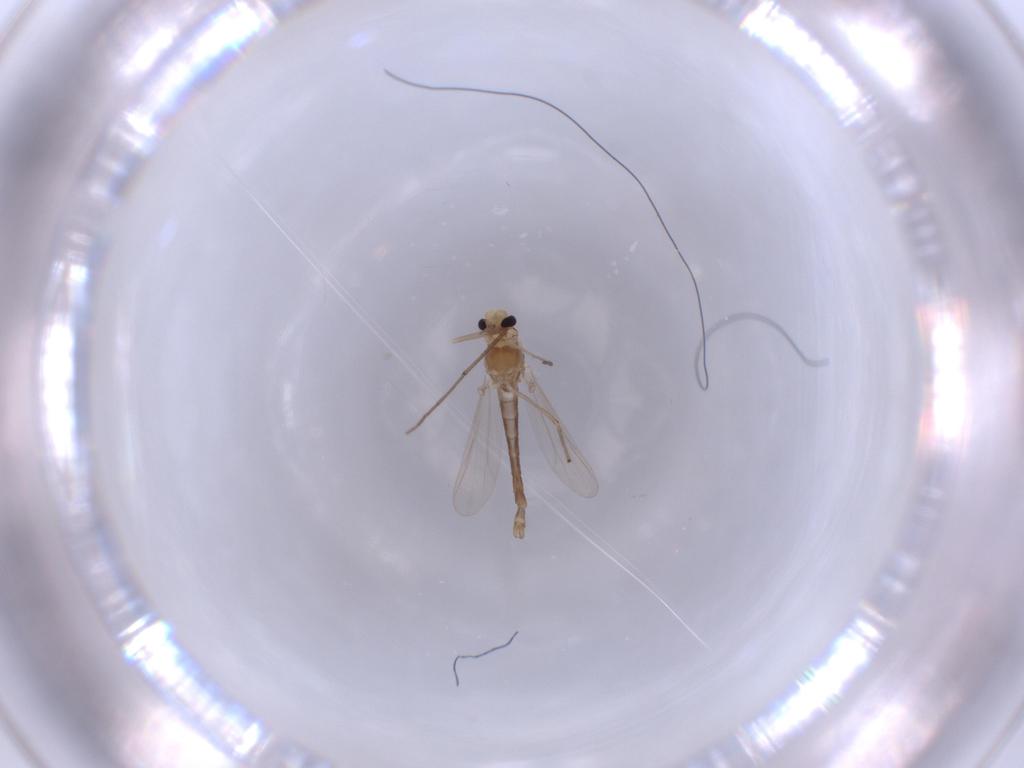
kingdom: Animalia
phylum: Arthropoda
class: Insecta
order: Diptera
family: Chironomidae
